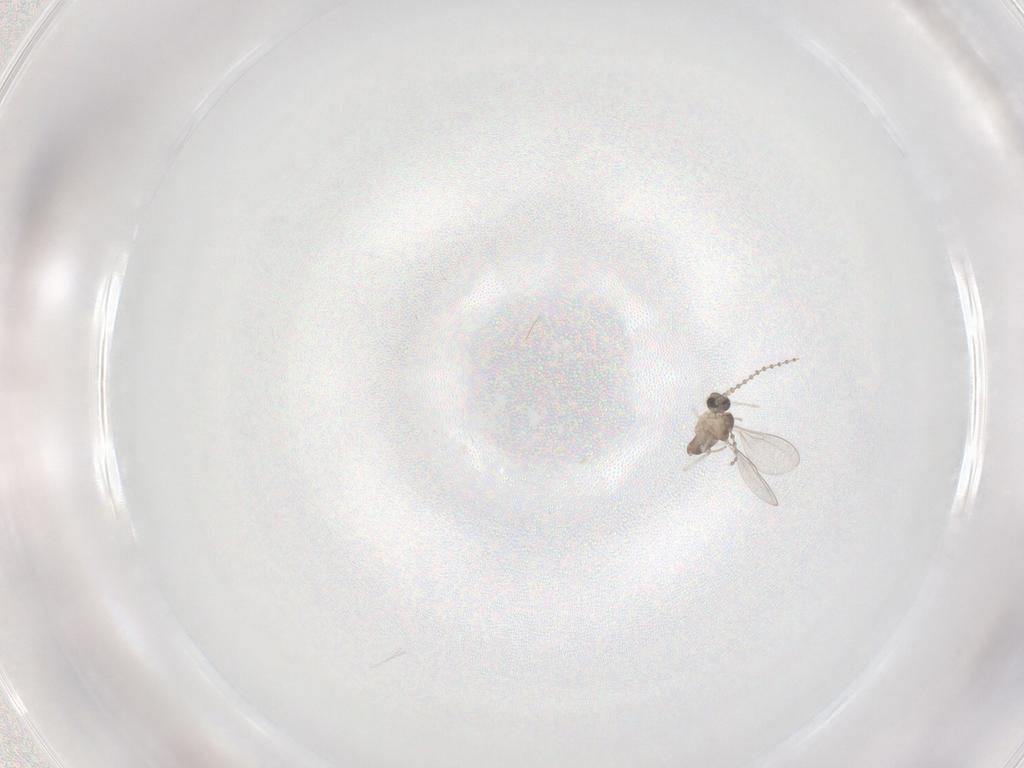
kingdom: Animalia
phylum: Arthropoda
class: Insecta
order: Diptera
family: Cecidomyiidae
